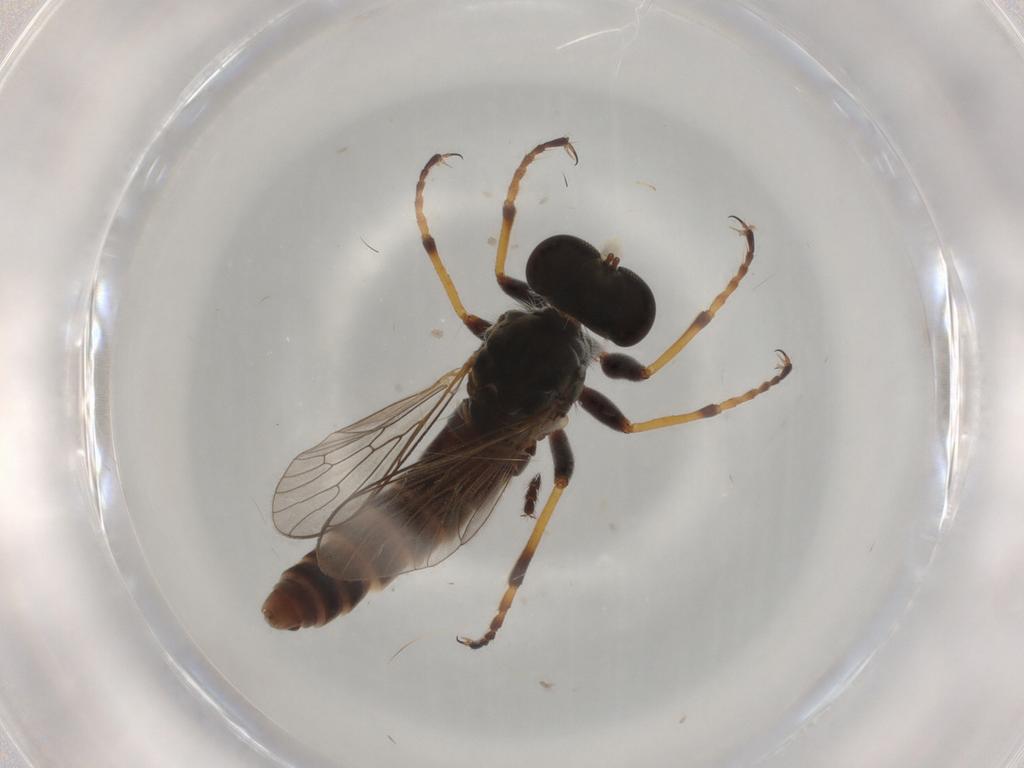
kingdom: Animalia
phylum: Arthropoda
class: Insecta
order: Diptera
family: Asilidae
